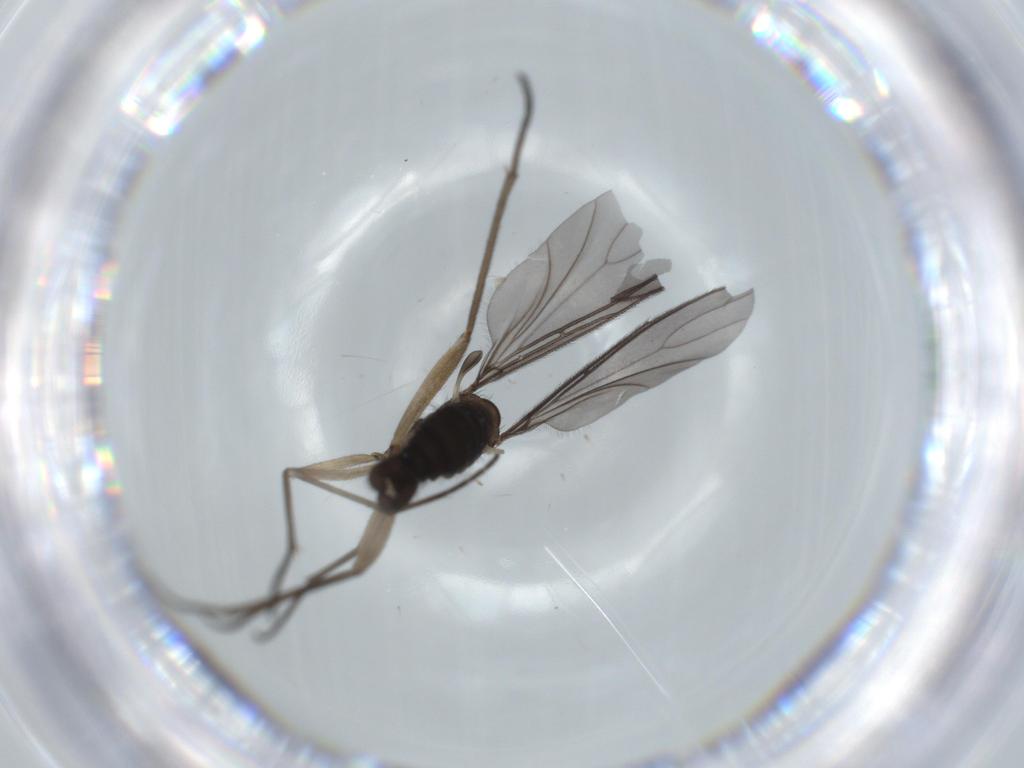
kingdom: Animalia
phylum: Arthropoda
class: Insecta
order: Diptera
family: Sciaridae
